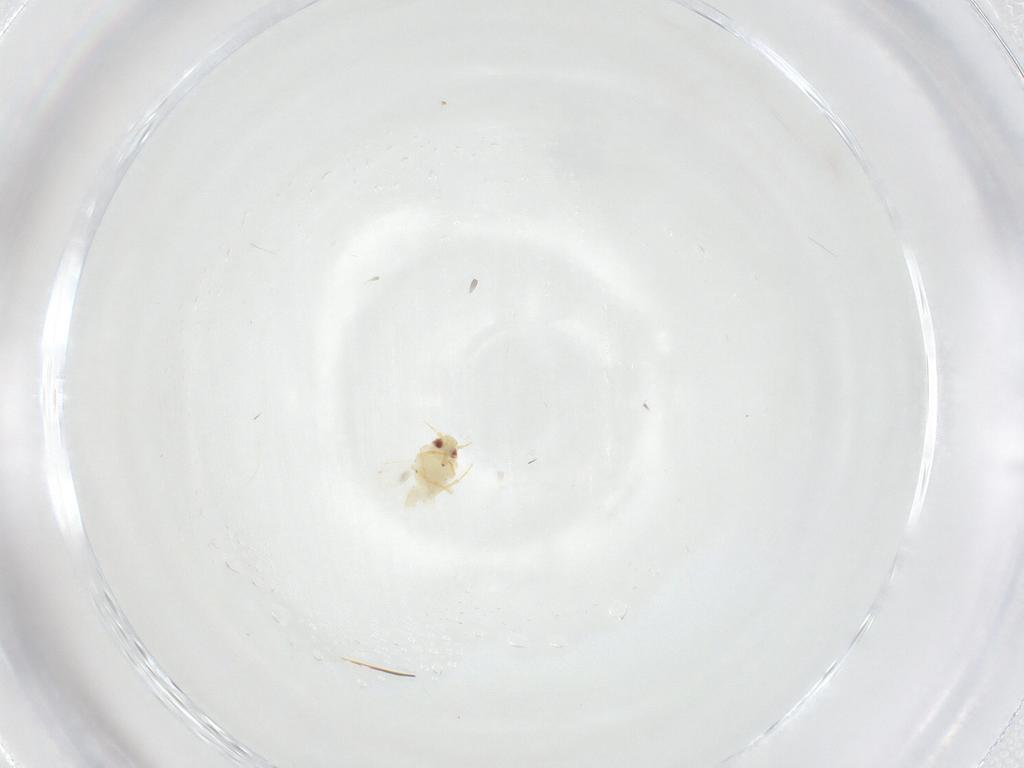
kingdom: Animalia
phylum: Arthropoda
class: Insecta
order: Hemiptera
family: Aleyrodidae
